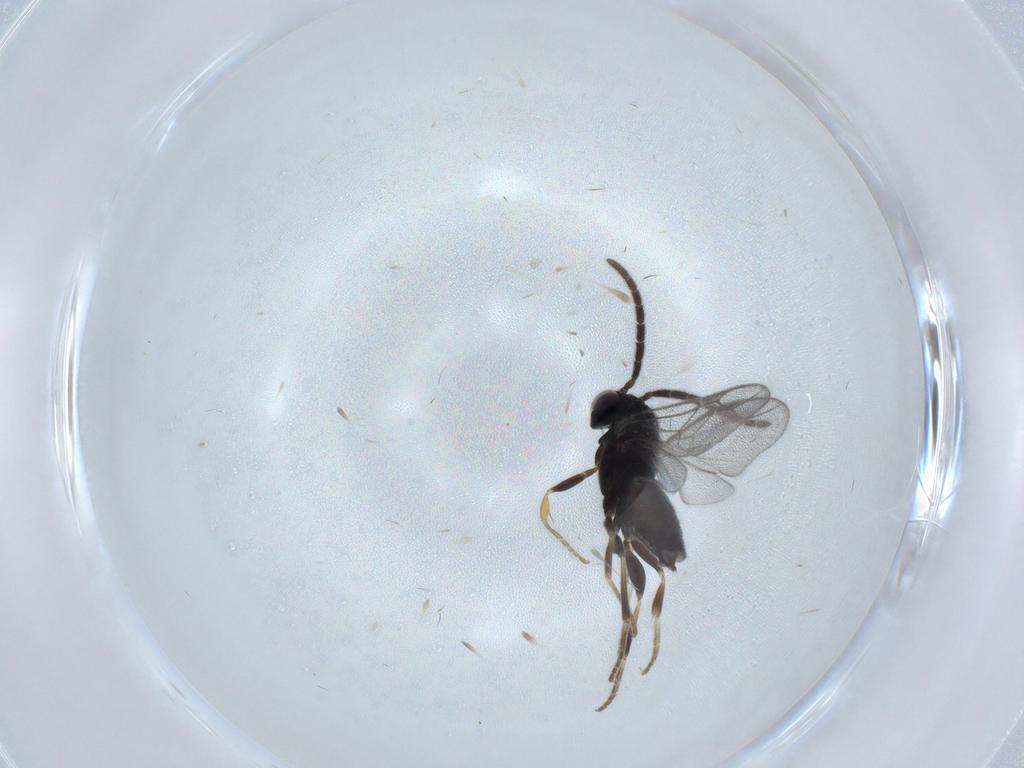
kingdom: Animalia
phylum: Arthropoda
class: Insecta
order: Hymenoptera
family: Dryinidae
